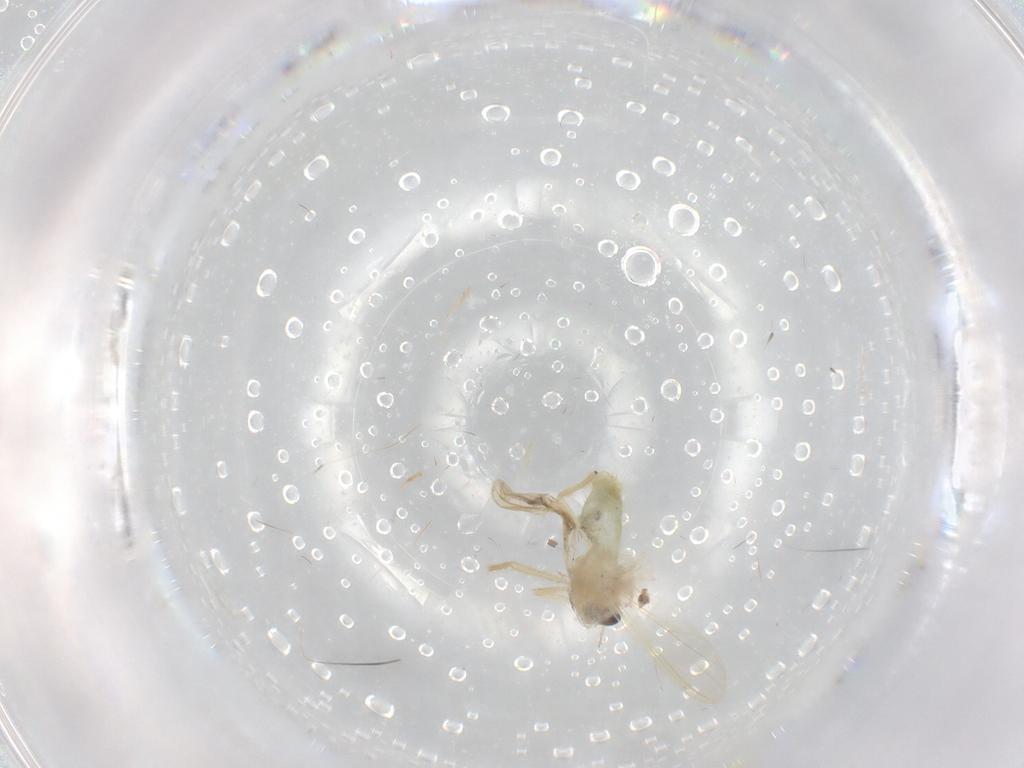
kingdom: Animalia
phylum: Arthropoda
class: Insecta
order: Diptera
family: Chironomidae
